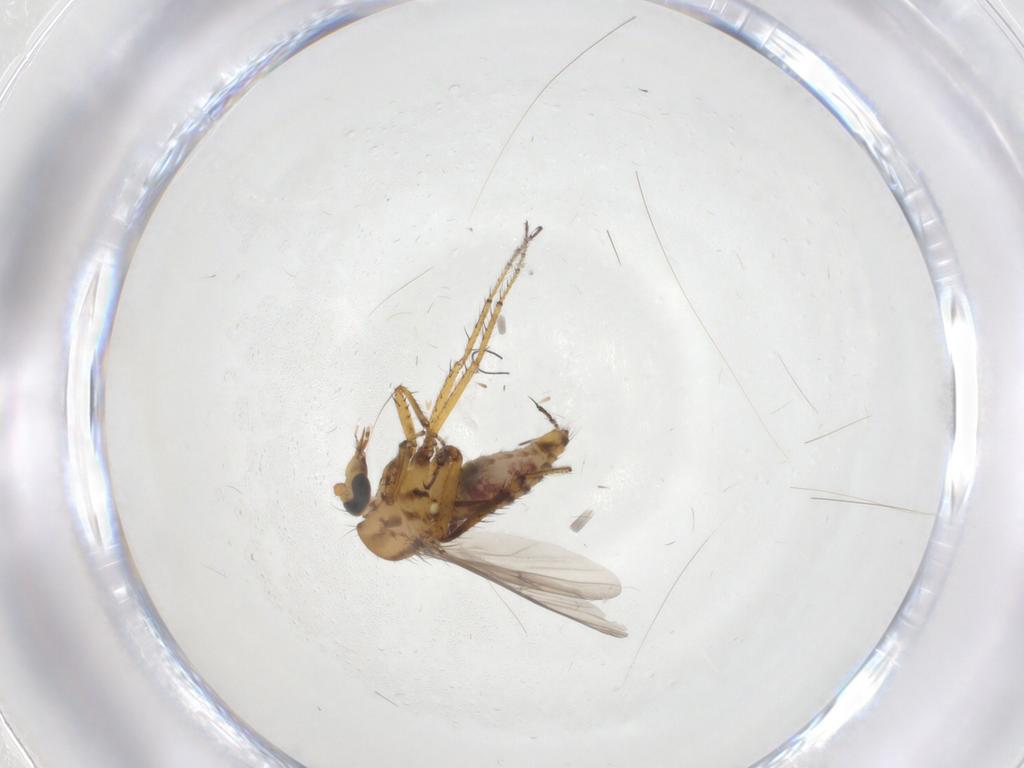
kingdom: Animalia
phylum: Arthropoda
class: Insecta
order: Diptera
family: Cecidomyiidae
